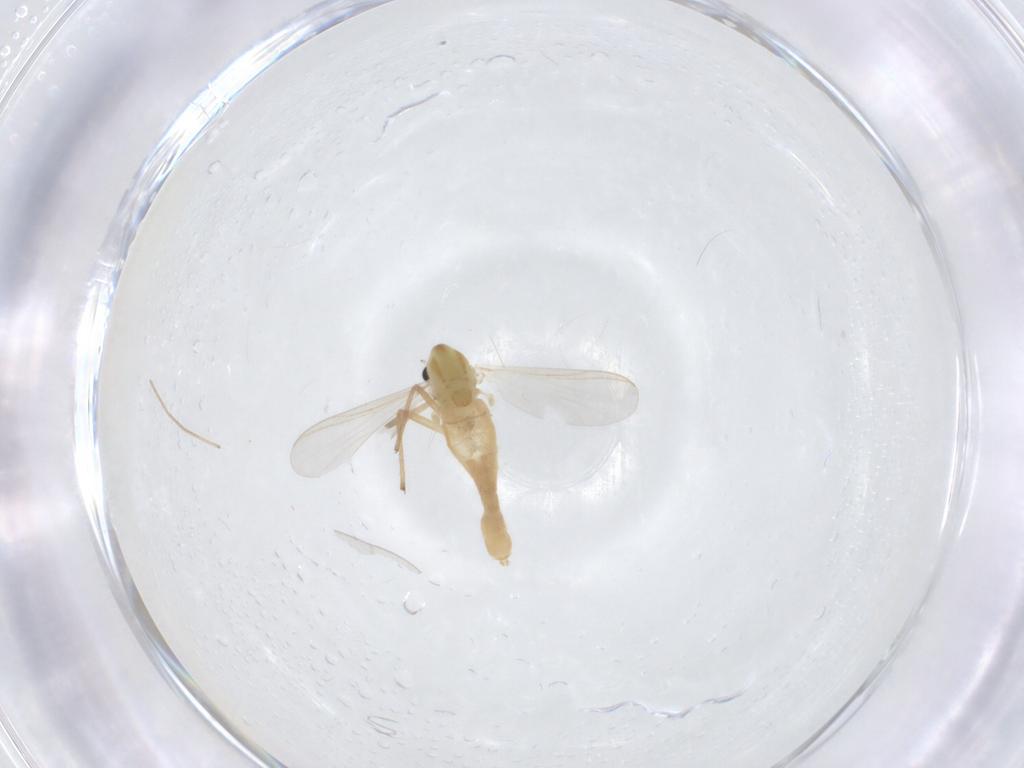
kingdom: Animalia
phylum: Arthropoda
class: Insecta
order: Diptera
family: Chironomidae
